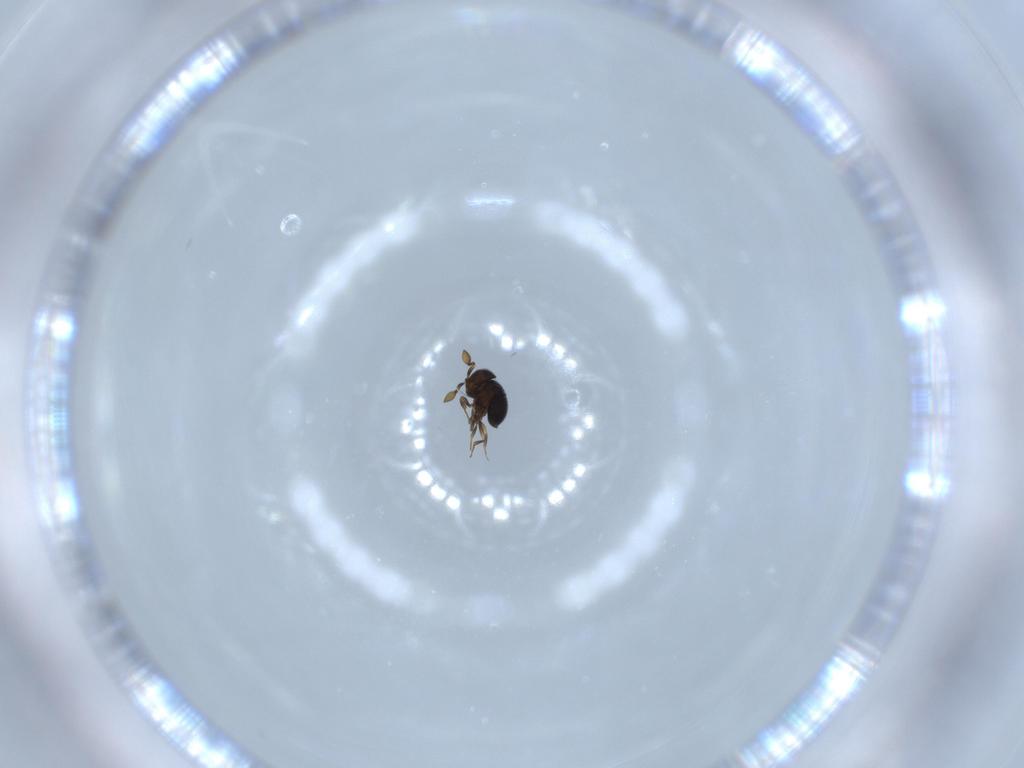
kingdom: Animalia
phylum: Arthropoda
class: Insecta
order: Hymenoptera
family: Scelionidae
